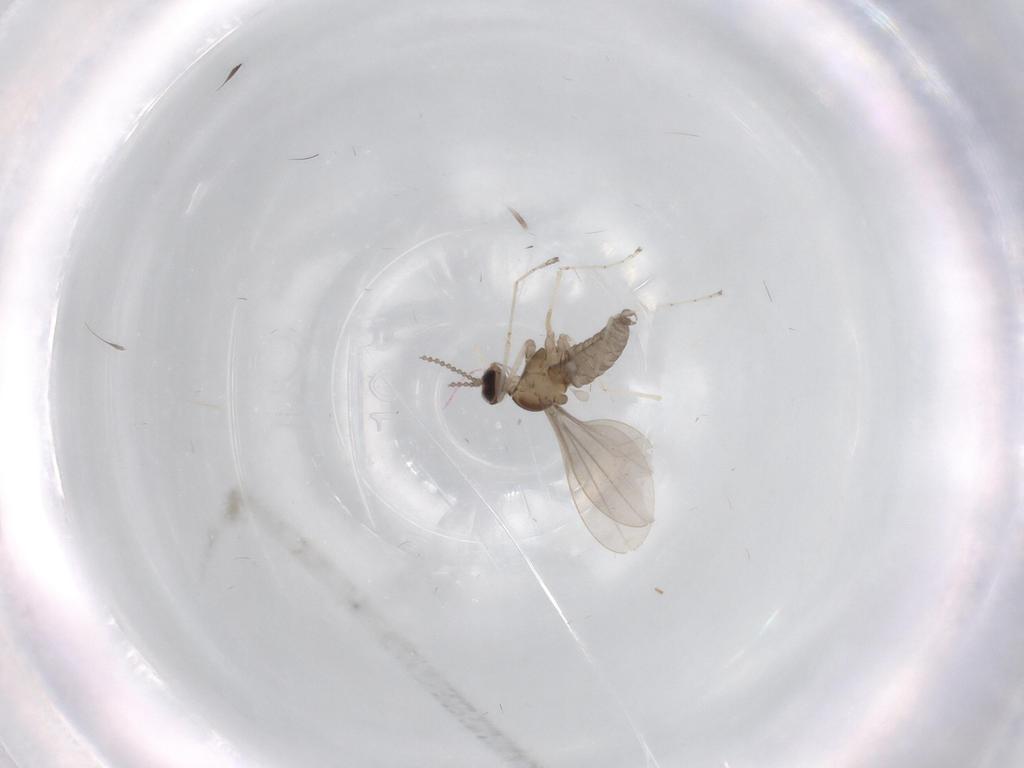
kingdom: Animalia
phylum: Arthropoda
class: Insecta
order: Diptera
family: Cecidomyiidae
